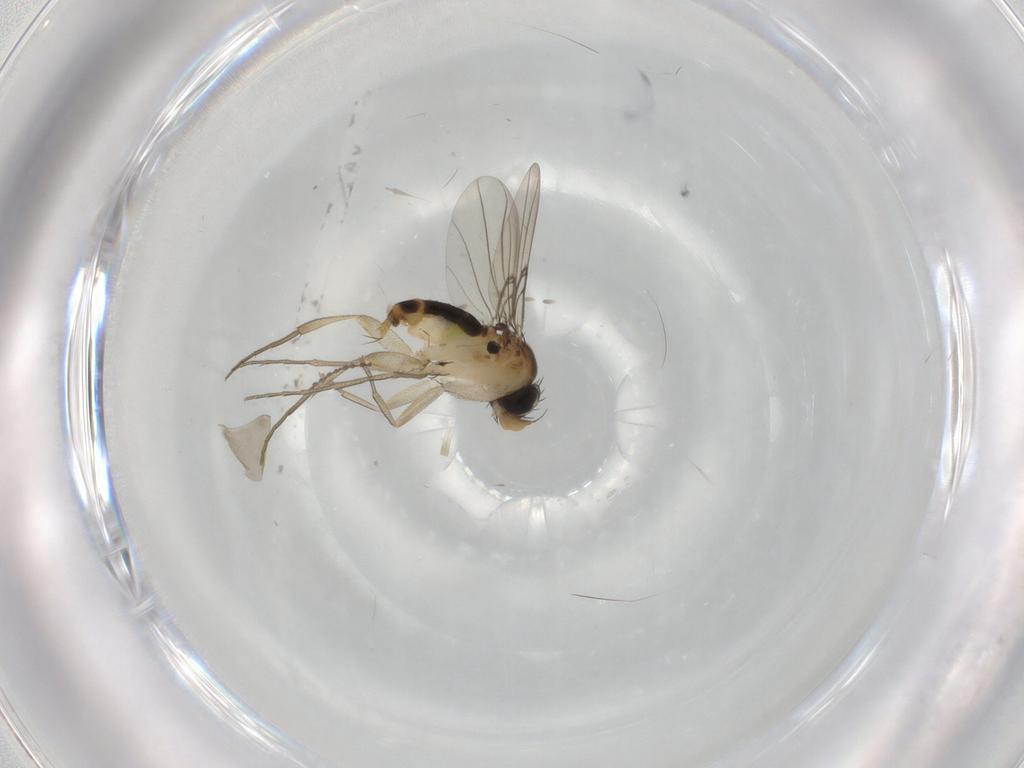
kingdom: Animalia
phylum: Arthropoda
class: Insecta
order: Diptera
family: Phoridae
